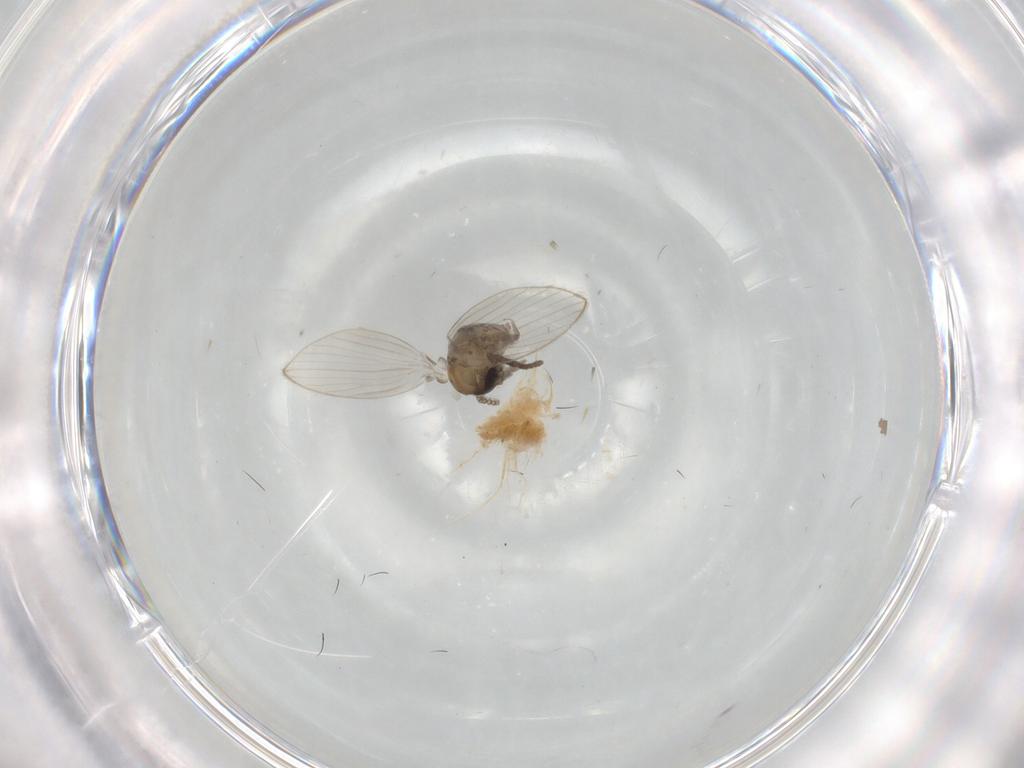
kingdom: Animalia
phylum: Arthropoda
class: Insecta
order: Diptera
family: Psychodidae
